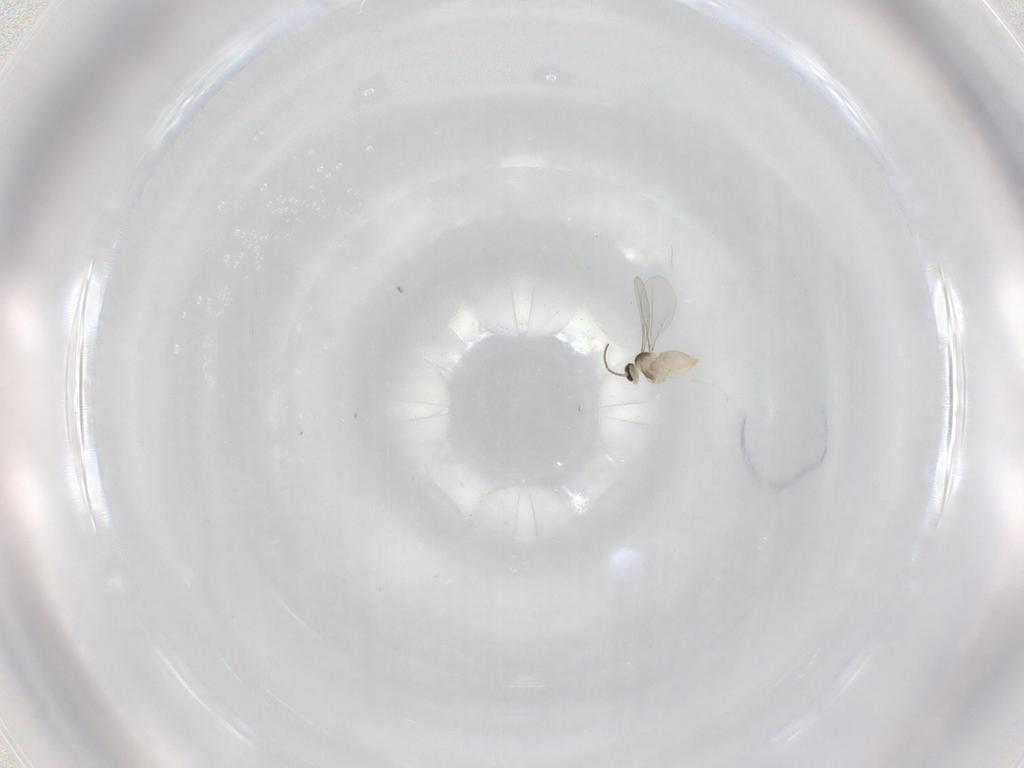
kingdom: Animalia
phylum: Arthropoda
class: Insecta
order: Diptera
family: Cecidomyiidae
